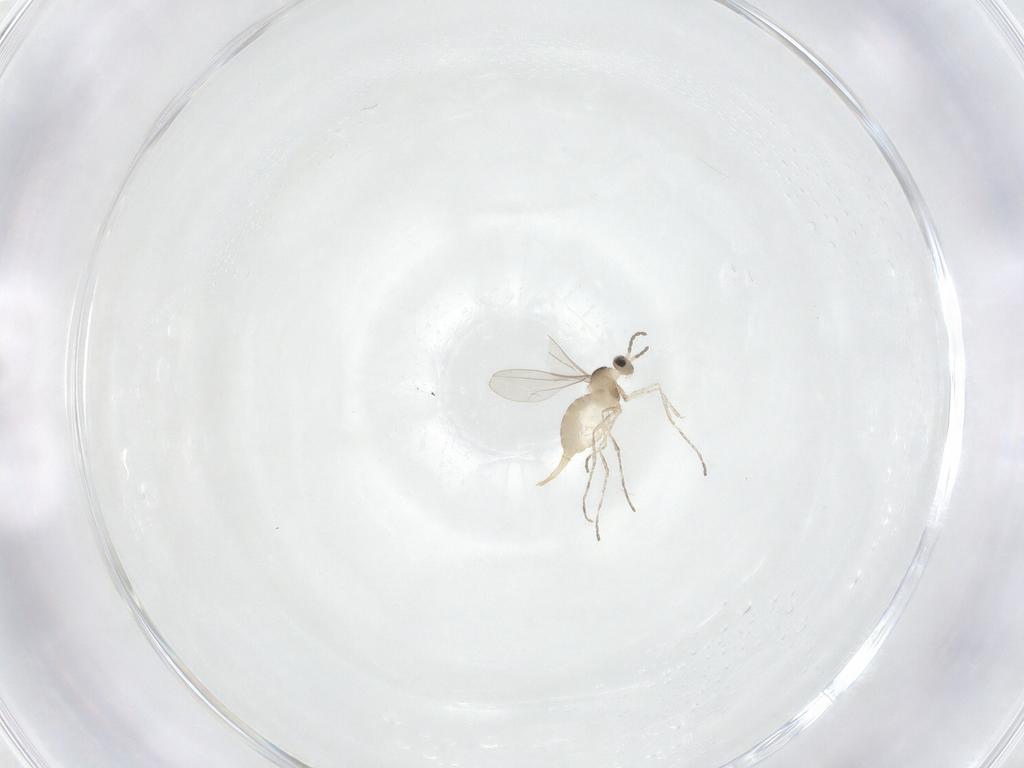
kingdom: Animalia
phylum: Arthropoda
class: Insecta
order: Diptera
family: Cecidomyiidae
